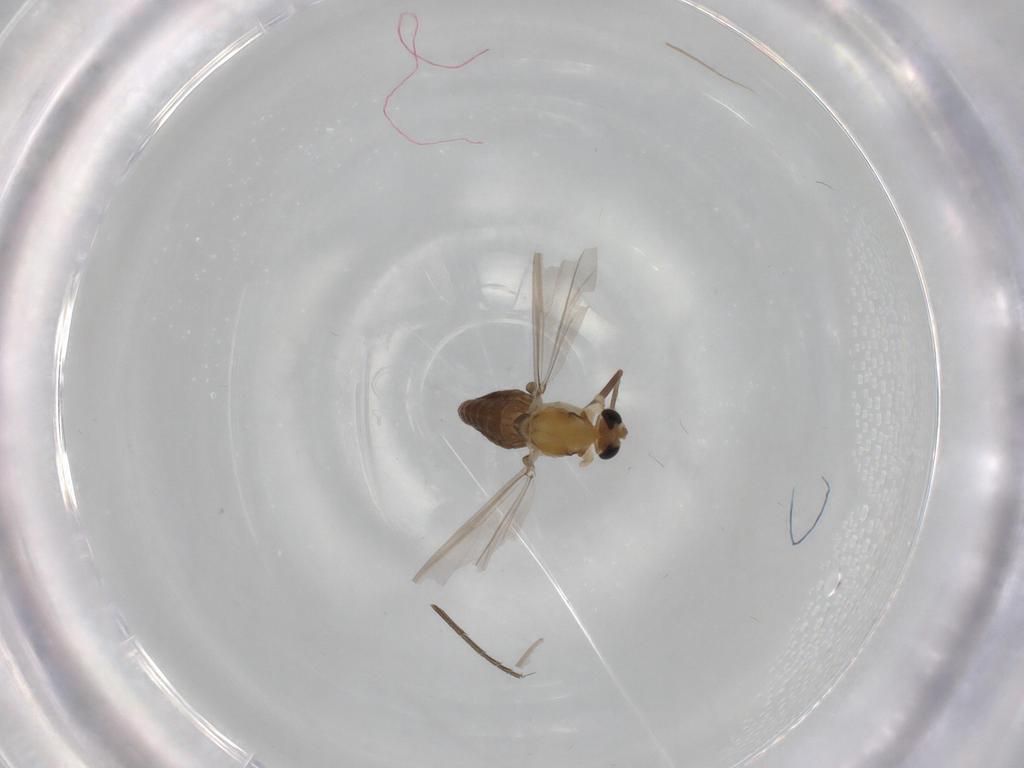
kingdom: Animalia
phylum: Arthropoda
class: Insecta
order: Diptera
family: Chironomidae
